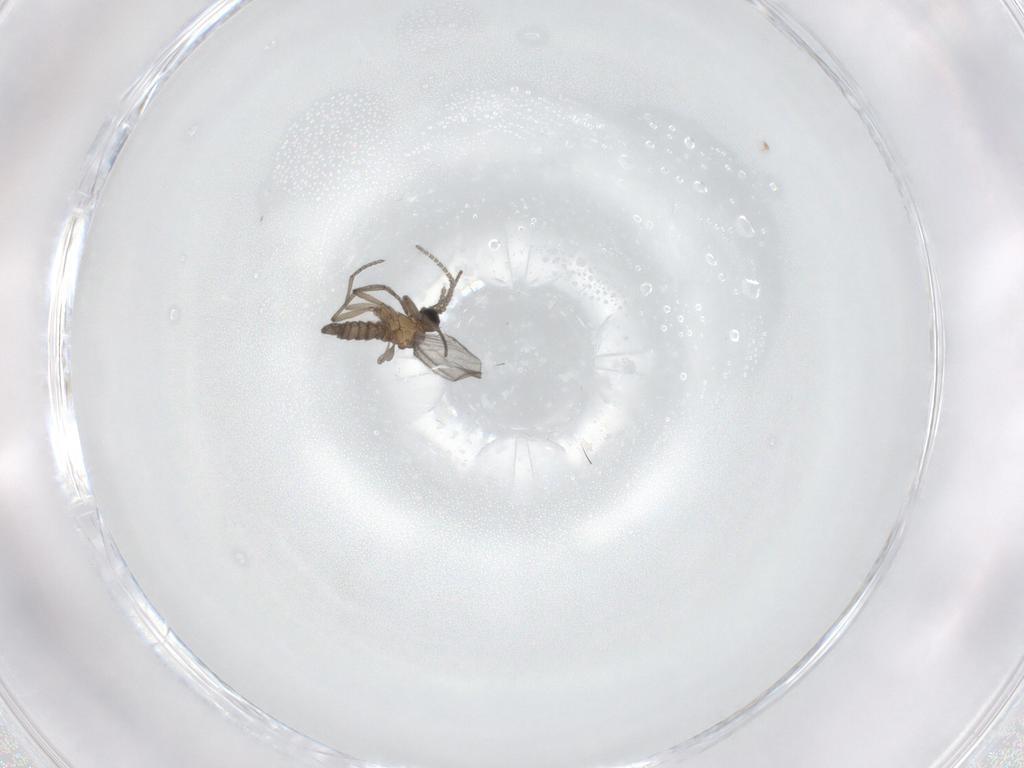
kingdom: Animalia
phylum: Arthropoda
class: Insecta
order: Diptera
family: Sciaridae
